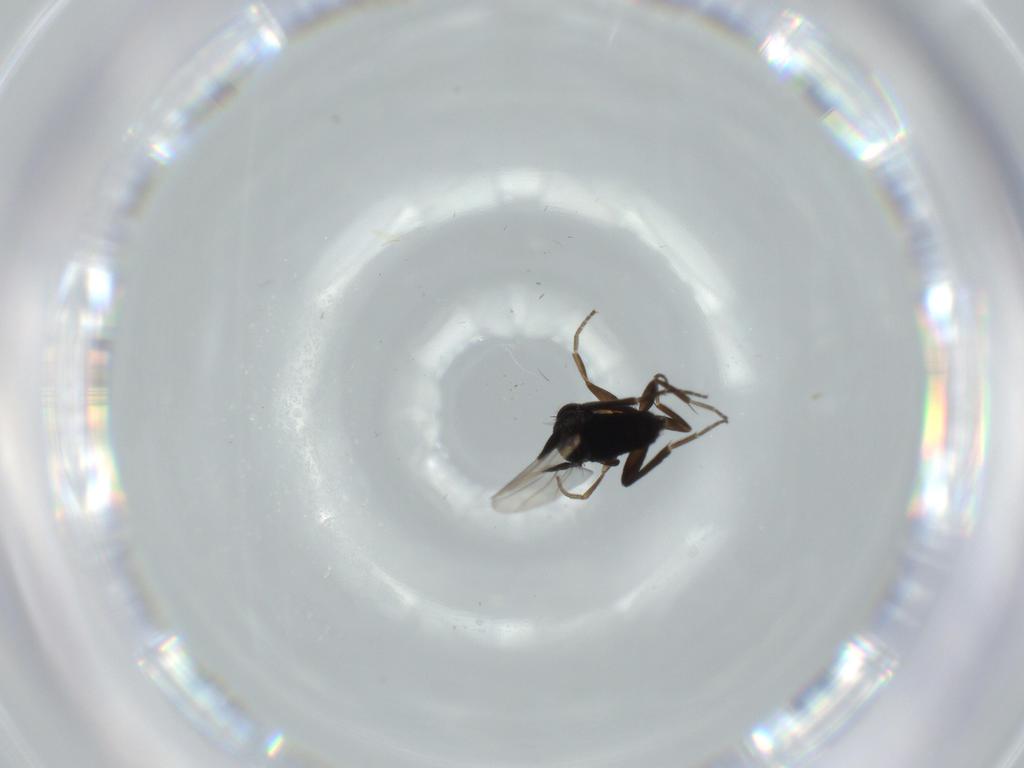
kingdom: Animalia
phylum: Arthropoda
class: Insecta
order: Diptera
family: Phoridae
